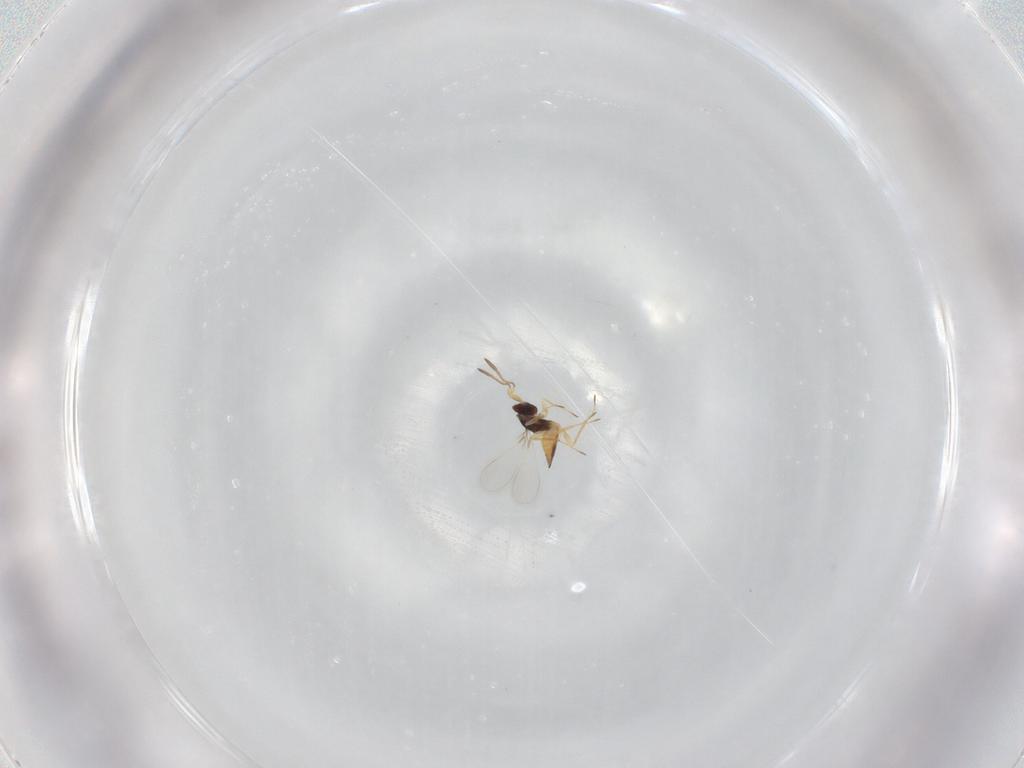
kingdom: Animalia
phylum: Arthropoda
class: Insecta
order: Hymenoptera
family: Mymaridae
